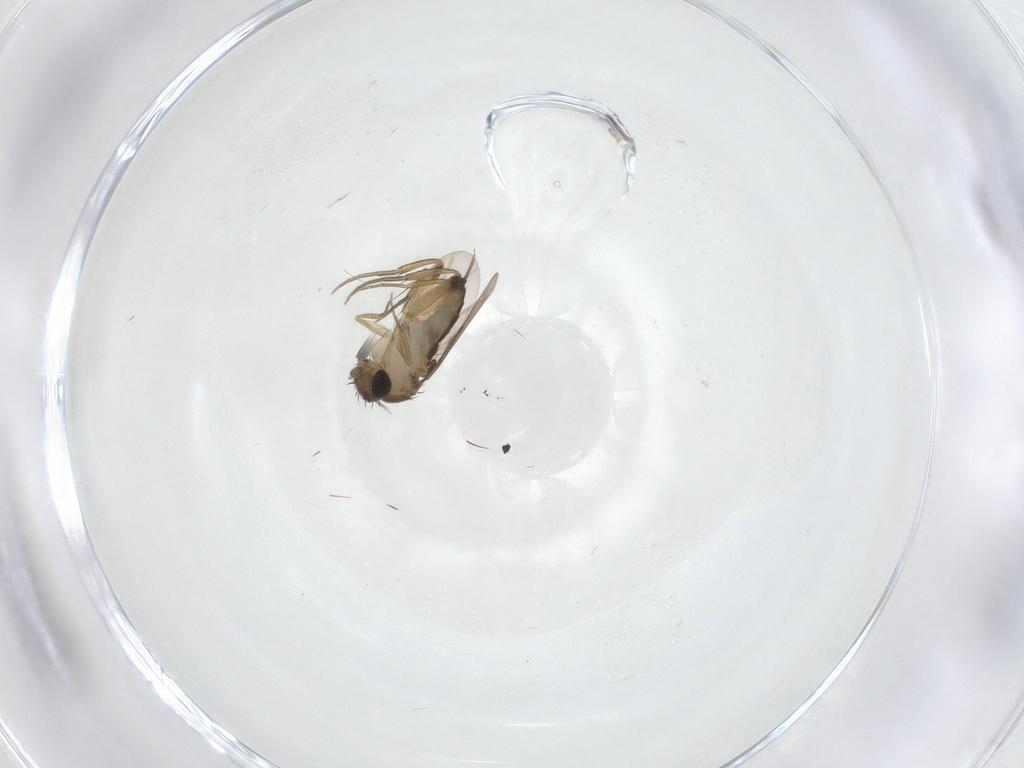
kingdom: Animalia
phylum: Arthropoda
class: Insecta
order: Diptera
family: Phoridae
